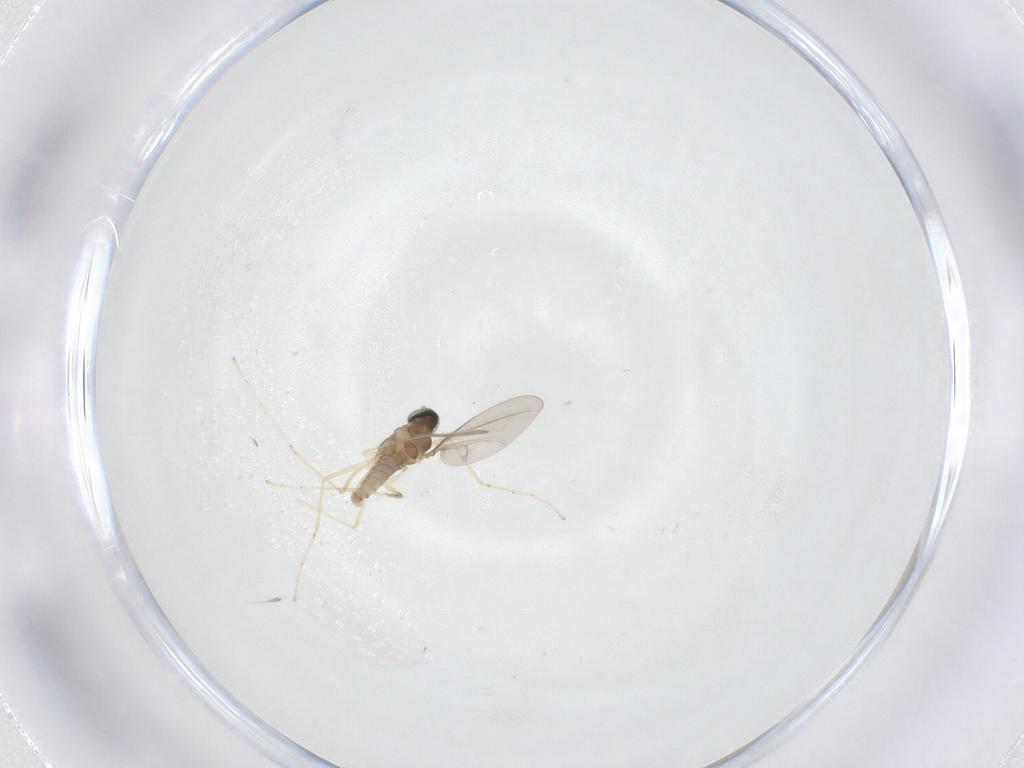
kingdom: Animalia
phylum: Arthropoda
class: Insecta
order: Diptera
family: Cecidomyiidae
